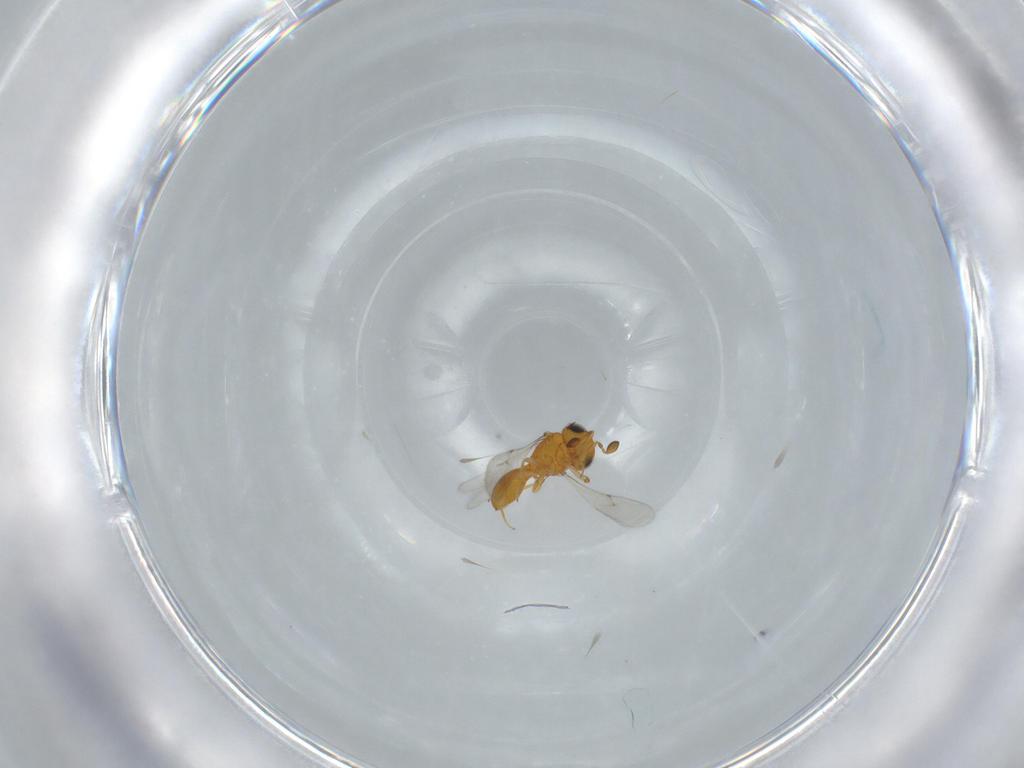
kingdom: Animalia
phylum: Arthropoda
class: Insecta
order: Hymenoptera
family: Scelionidae
